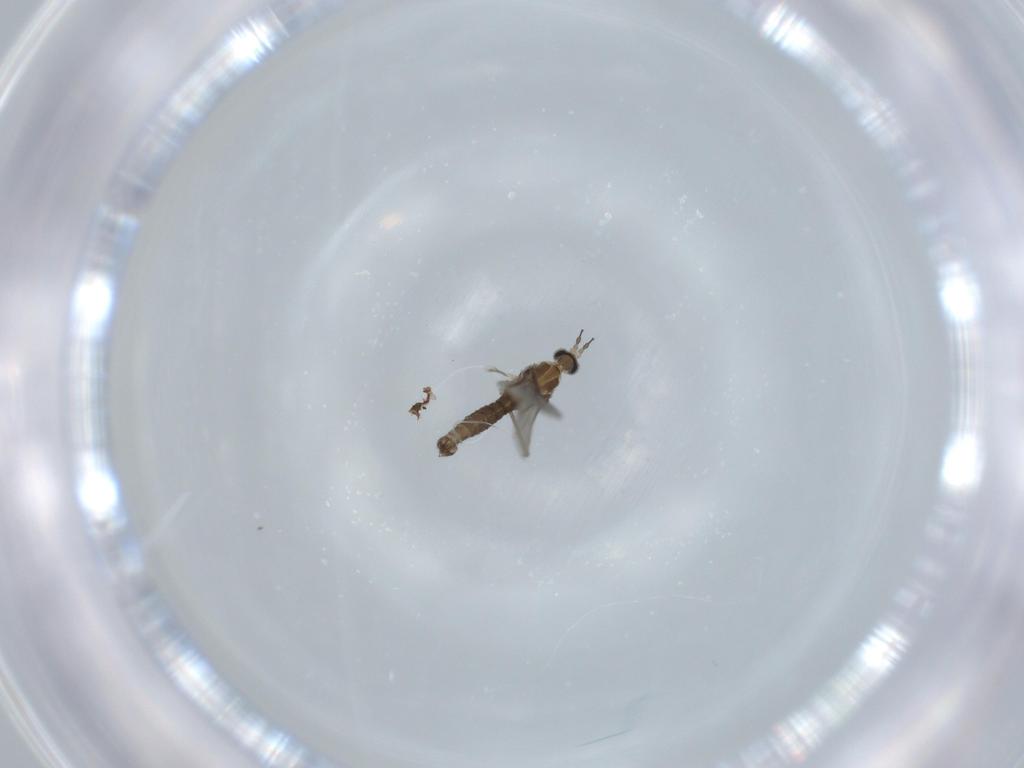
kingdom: Animalia
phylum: Arthropoda
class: Insecta
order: Diptera
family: Cecidomyiidae
